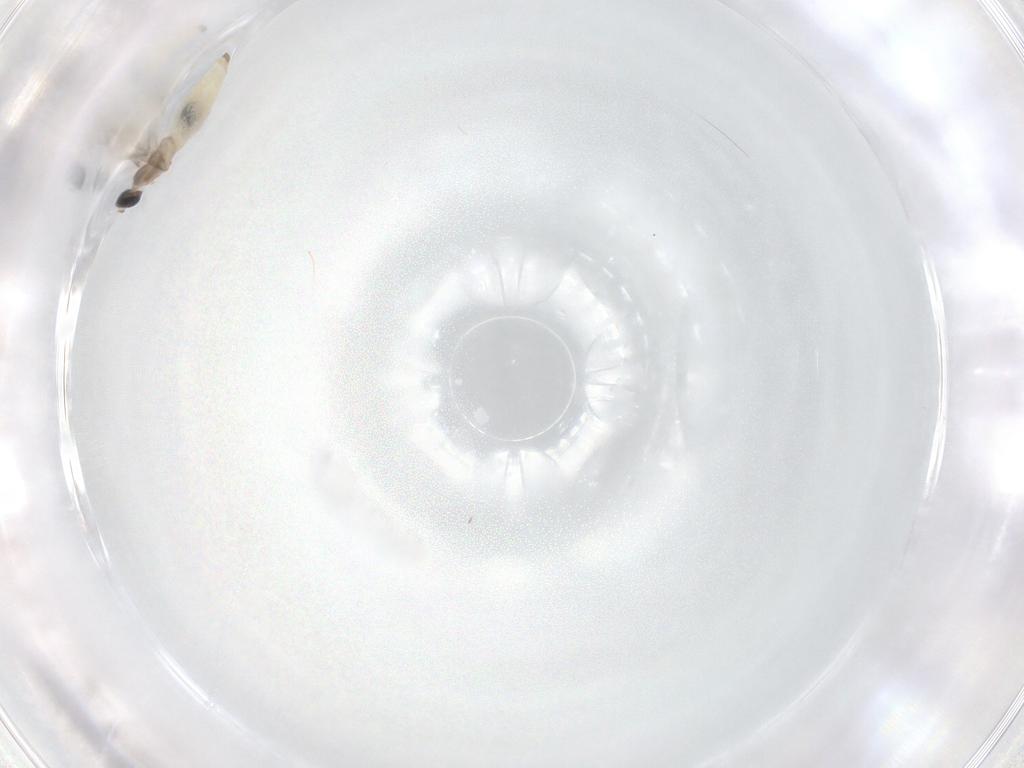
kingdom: Animalia
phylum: Arthropoda
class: Insecta
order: Diptera
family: Cecidomyiidae
